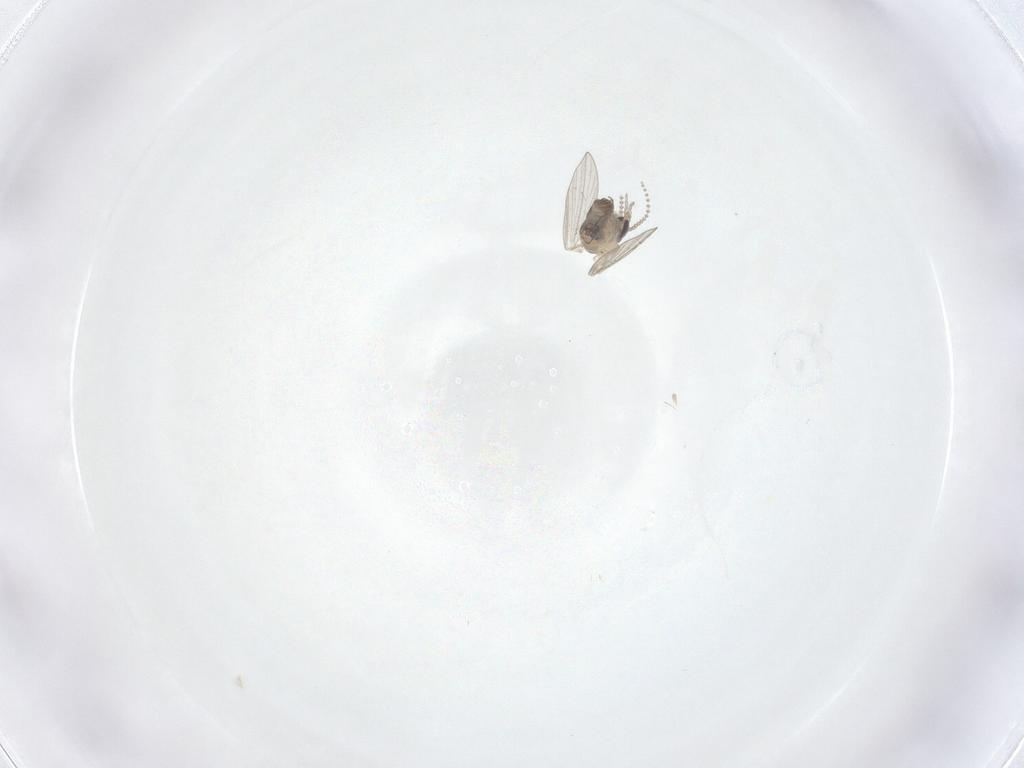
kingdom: Animalia
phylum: Arthropoda
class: Insecta
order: Diptera
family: Psychodidae
